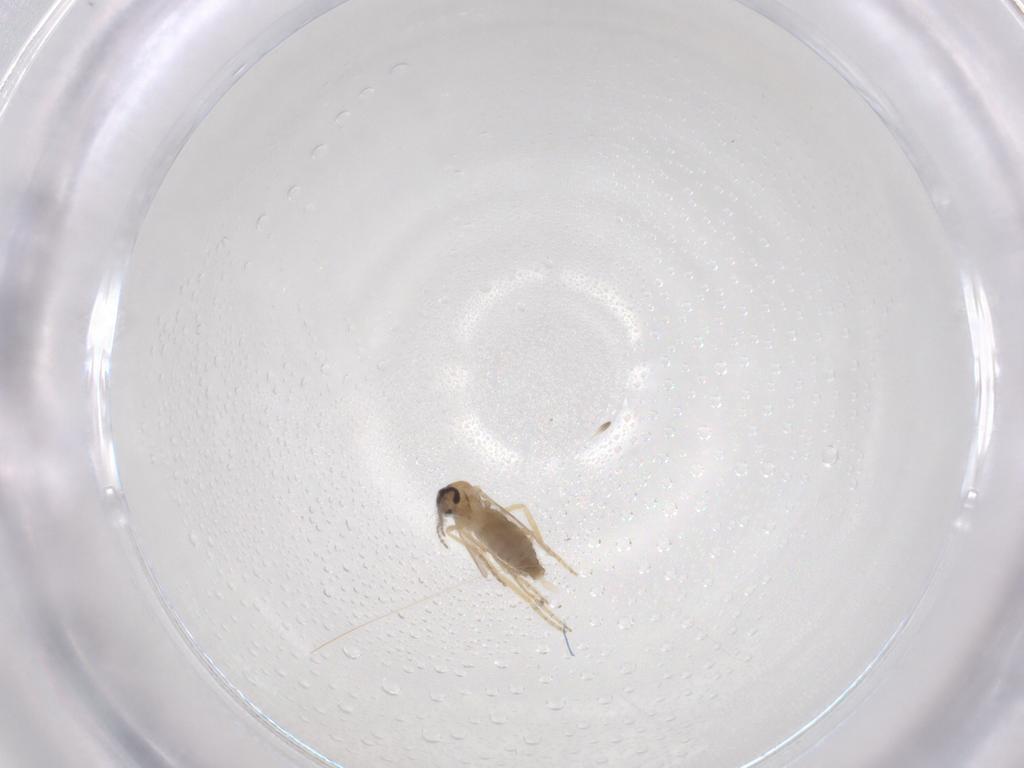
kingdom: Animalia
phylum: Arthropoda
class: Insecta
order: Diptera
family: Ceratopogonidae
